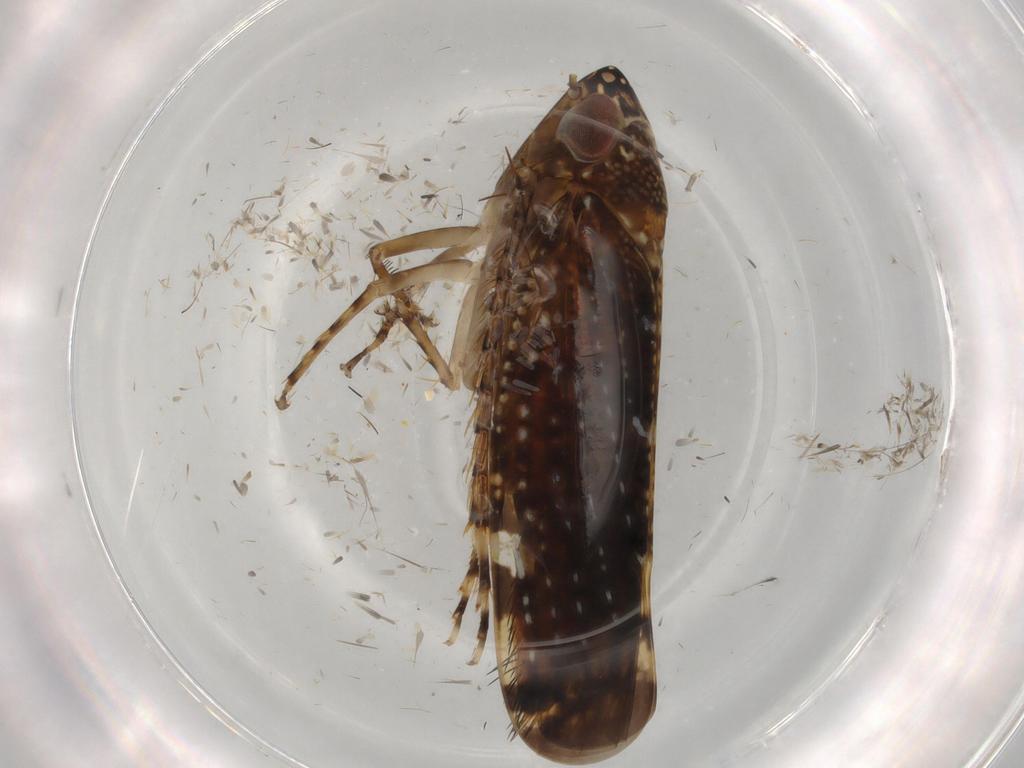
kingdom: Animalia
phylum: Arthropoda
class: Insecta
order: Hemiptera
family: Cicadellidae
